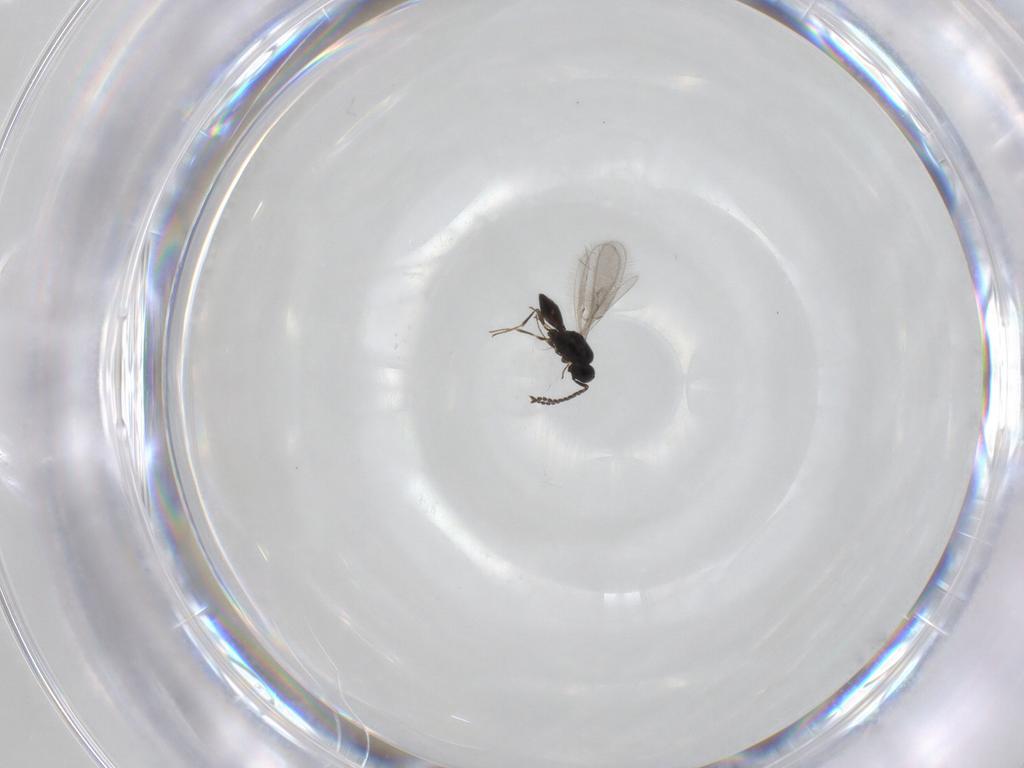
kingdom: Animalia
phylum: Arthropoda
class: Insecta
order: Hymenoptera
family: Scelionidae
